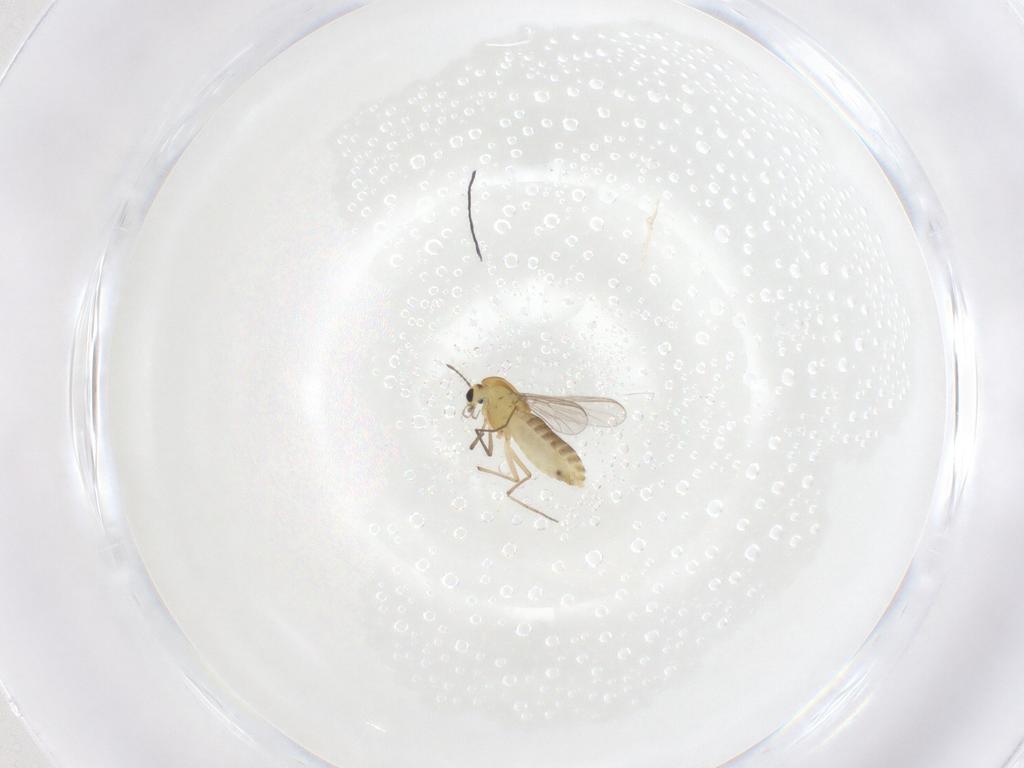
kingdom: Animalia
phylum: Arthropoda
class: Insecta
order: Diptera
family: Chironomidae
